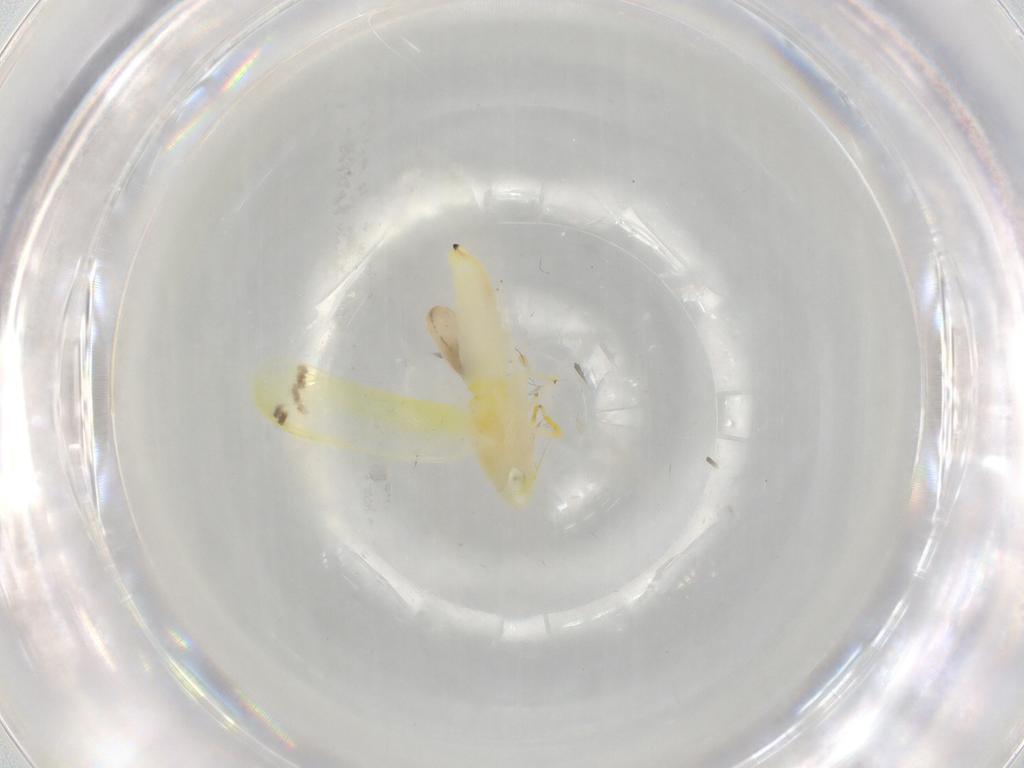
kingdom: Animalia
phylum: Arthropoda
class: Insecta
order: Hemiptera
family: Cicadellidae
